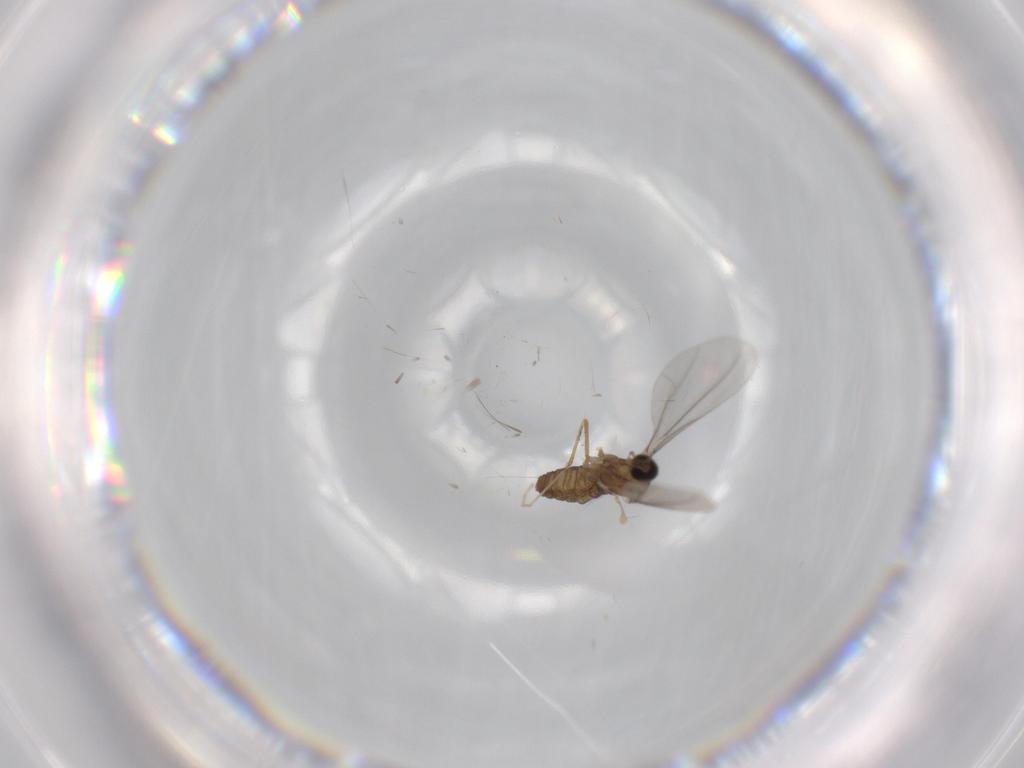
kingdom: Animalia
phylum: Arthropoda
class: Insecta
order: Diptera
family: Cecidomyiidae
